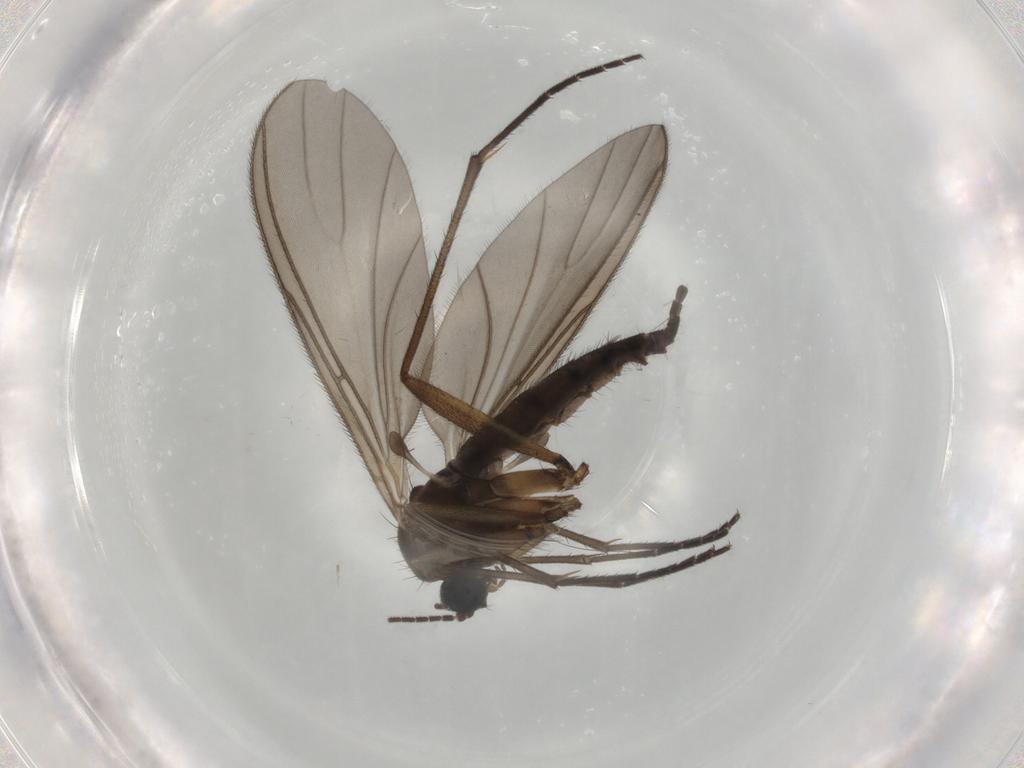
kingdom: Animalia
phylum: Arthropoda
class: Insecta
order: Diptera
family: Sciaridae
